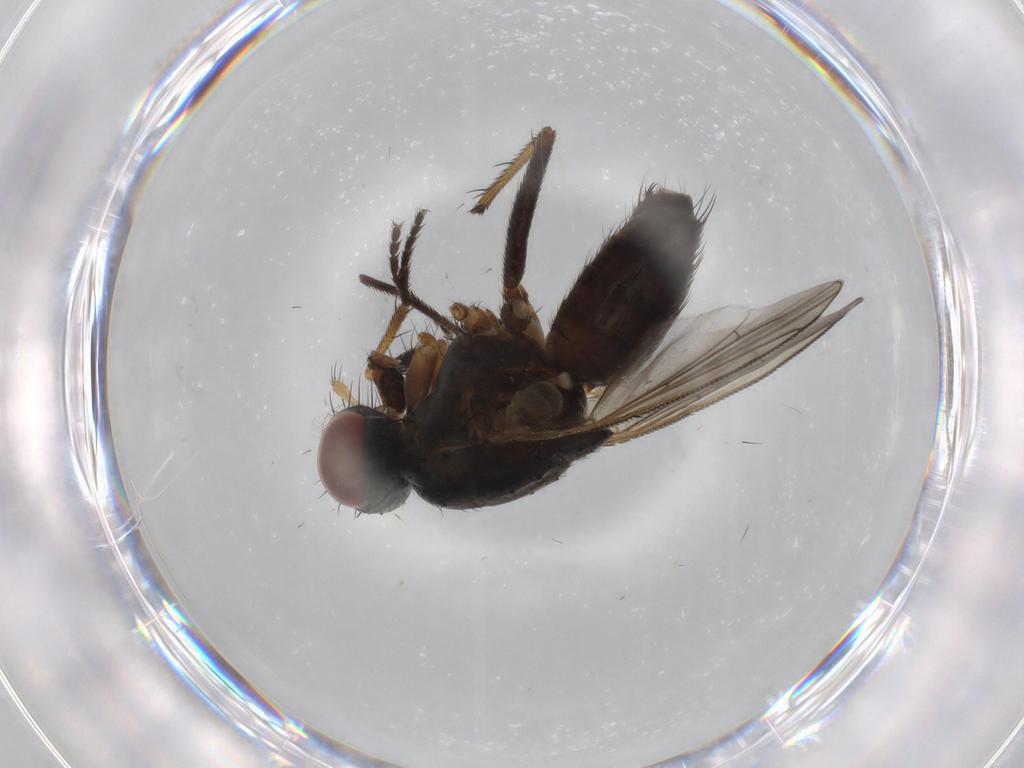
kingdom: Animalia
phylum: Arthropoda
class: Insecta
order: Diptera
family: Muscidae
